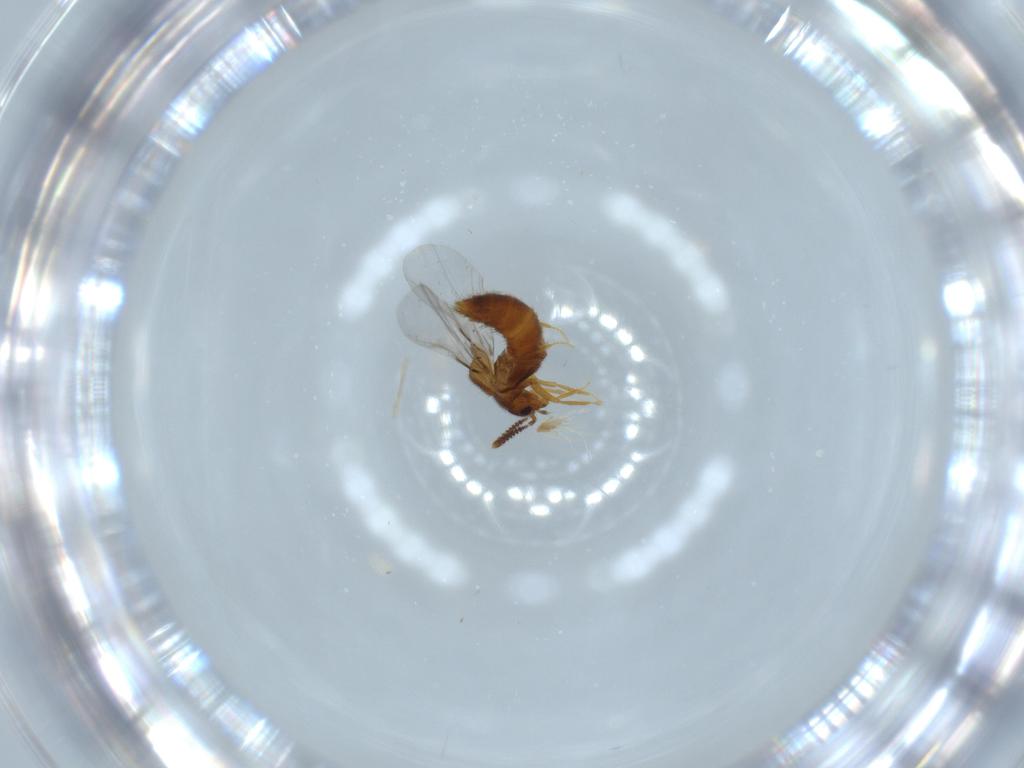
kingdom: Animalia
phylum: Arthropoda
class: Insecta
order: Coleoptera
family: Staphylinidae
